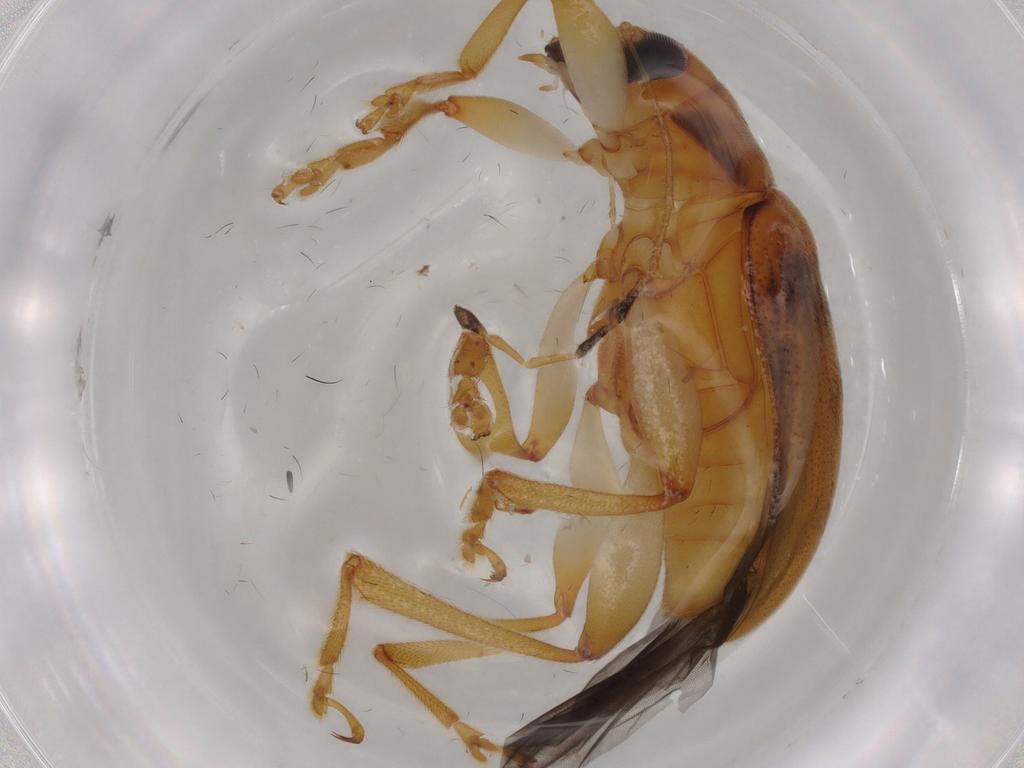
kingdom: Animalia
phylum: Arthropoda
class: Insecta
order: Coleoptera
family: Chrysomelidae
